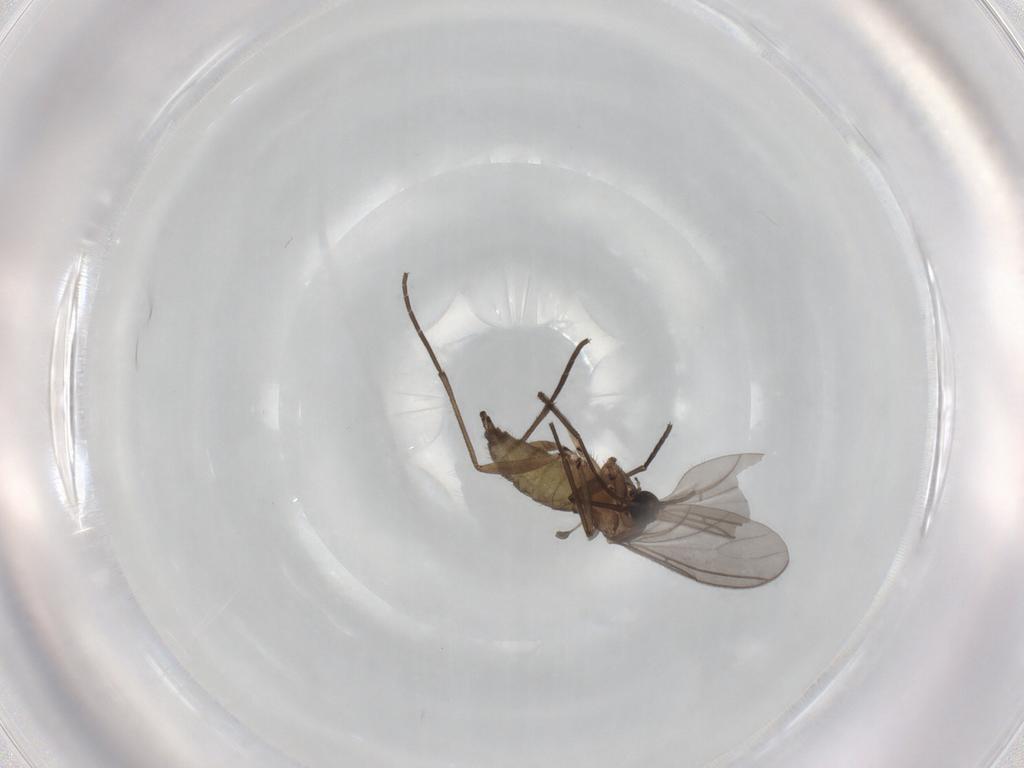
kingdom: Animalia
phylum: Arthropoda
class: Insecta
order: Diptera
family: Sciaridae
